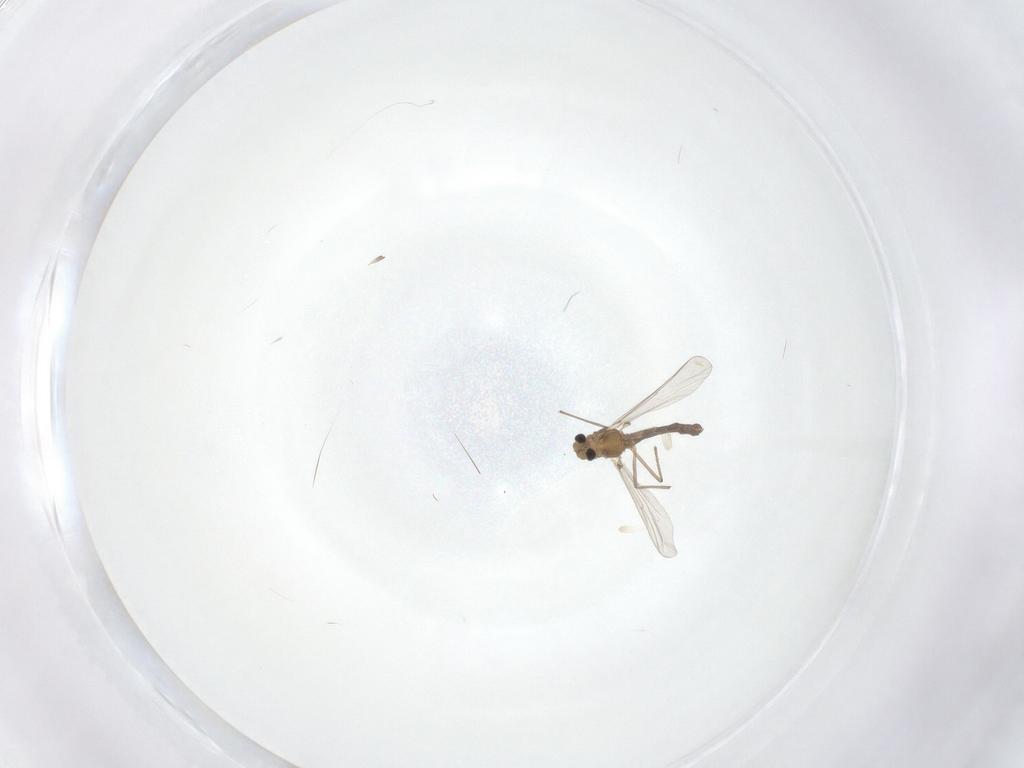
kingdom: Animalia
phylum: Arthropoda
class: Insecta
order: Diptera
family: Chironomidae
